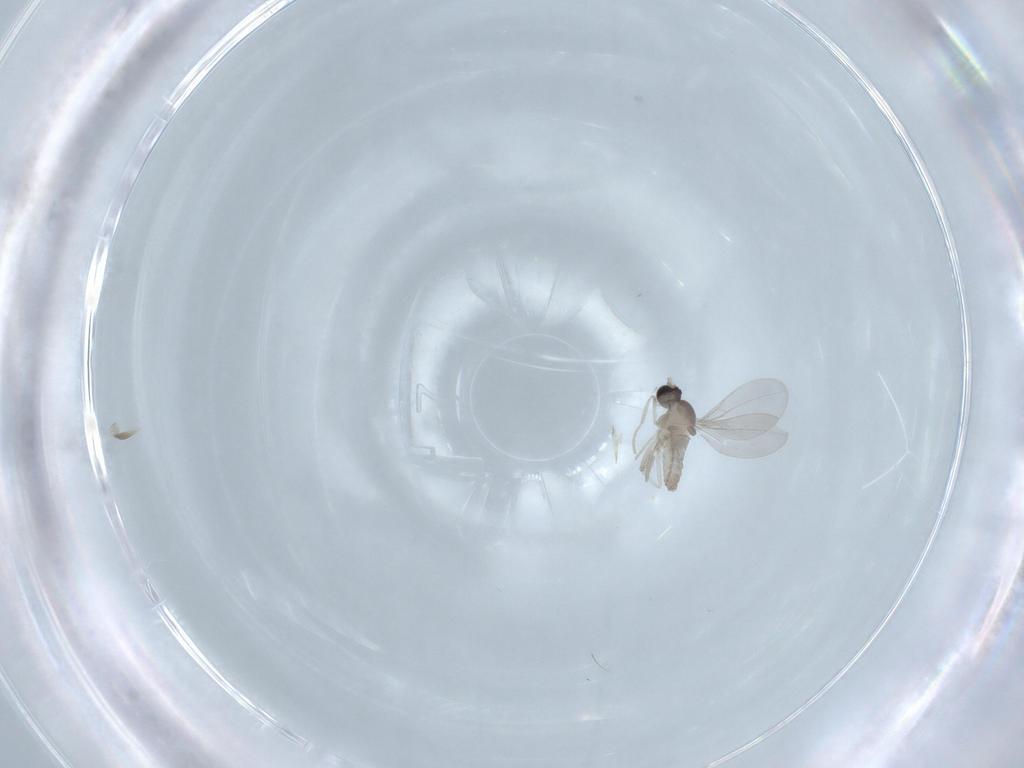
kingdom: Animalia
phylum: Arthropoda
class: Insecta
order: Diptera
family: Cecidomyiidae
